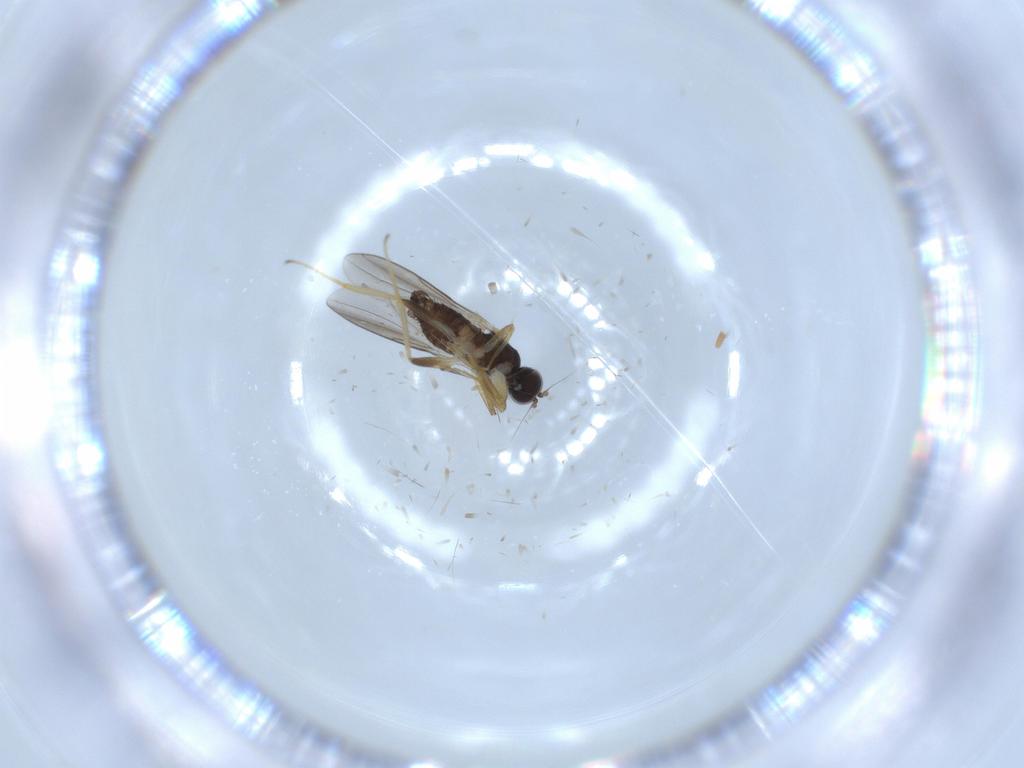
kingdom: Animalia
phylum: Arthropoda
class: Insecta
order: Diptera
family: Hybotidae
